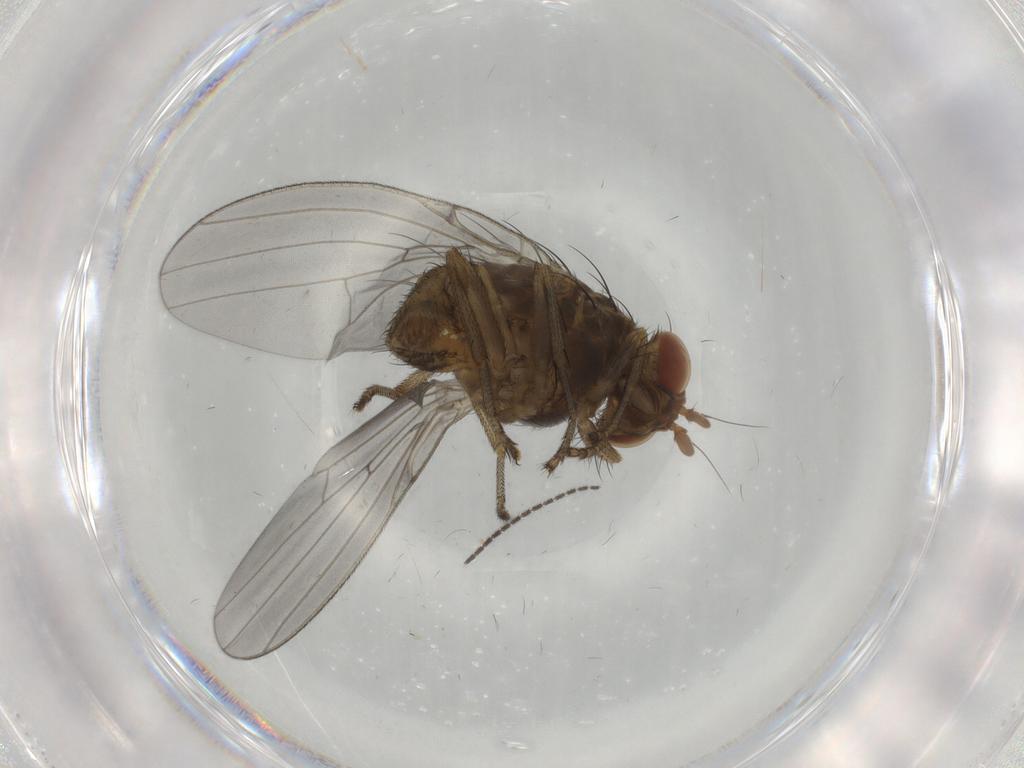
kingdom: Animalia
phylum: Arthropoda
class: Insecta
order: Diptera
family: Lauxaniidae
